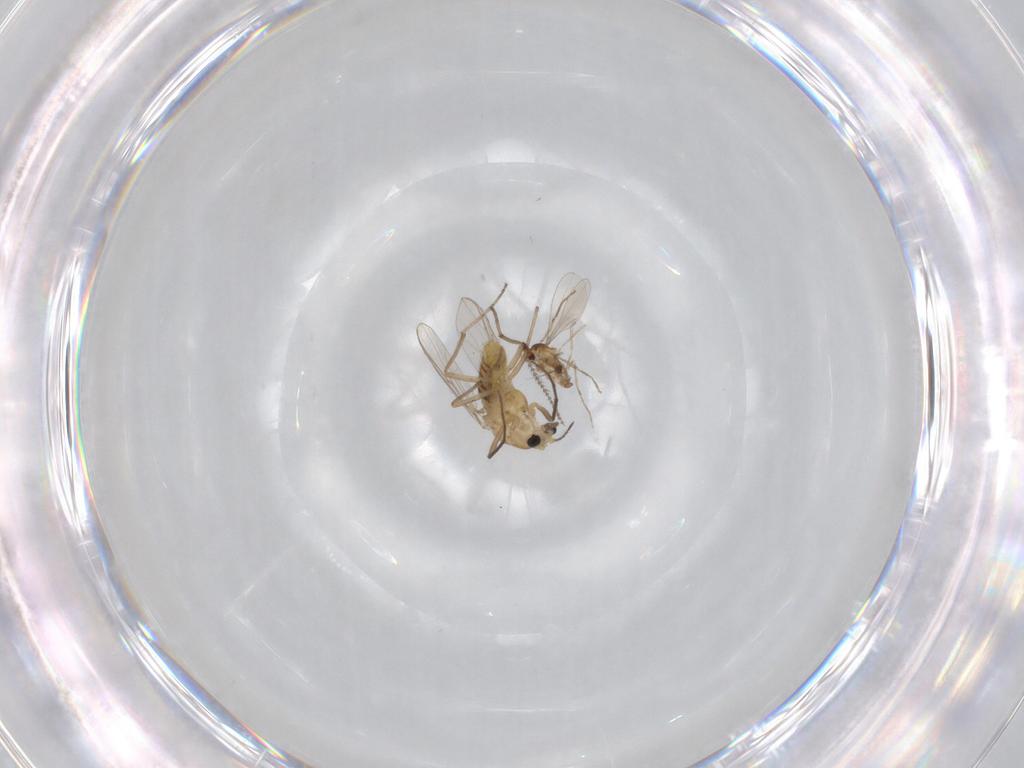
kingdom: Animalia
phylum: Arthropoda
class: Insecta
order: Diptera
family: Chironomidae
